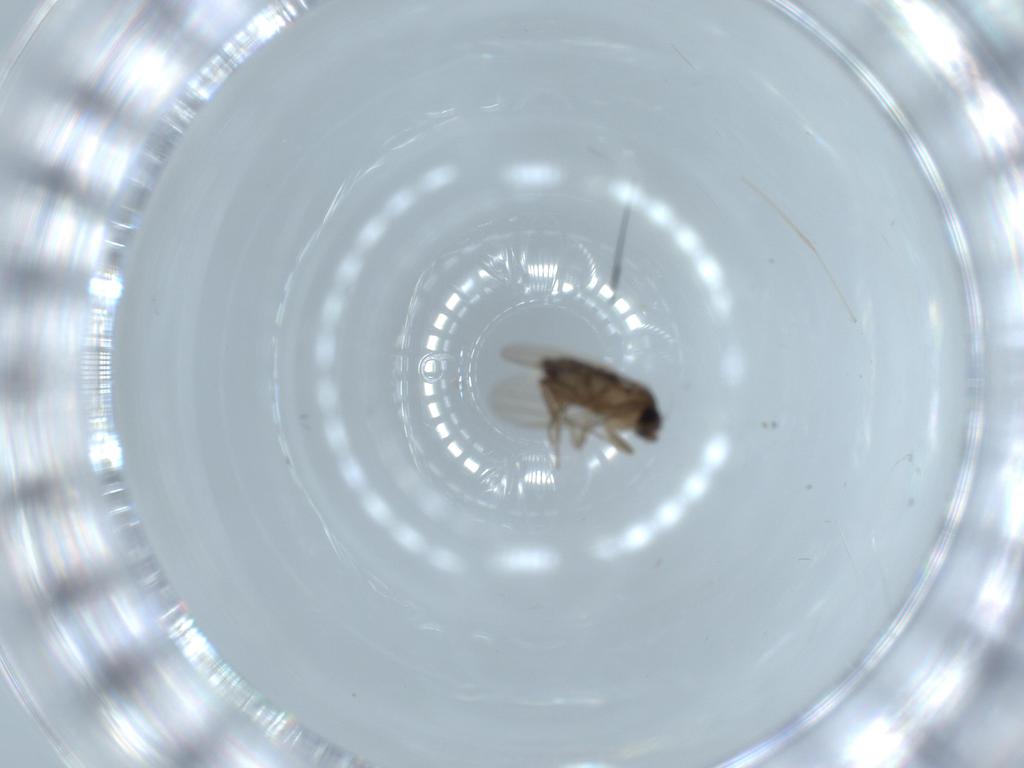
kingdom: Animalia
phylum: Arthropoda
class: Insecta
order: Diptera
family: Phoridae
